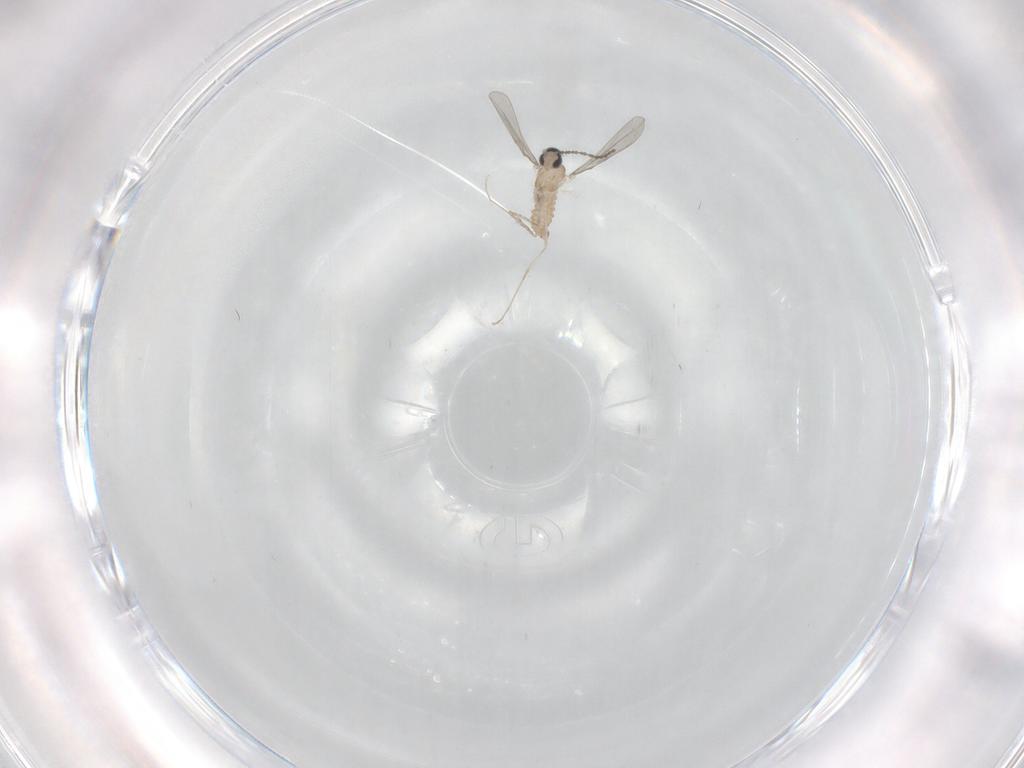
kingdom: Animalia
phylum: Arthropoda
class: Insecta
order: Diptera
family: Cecidomyiidae
